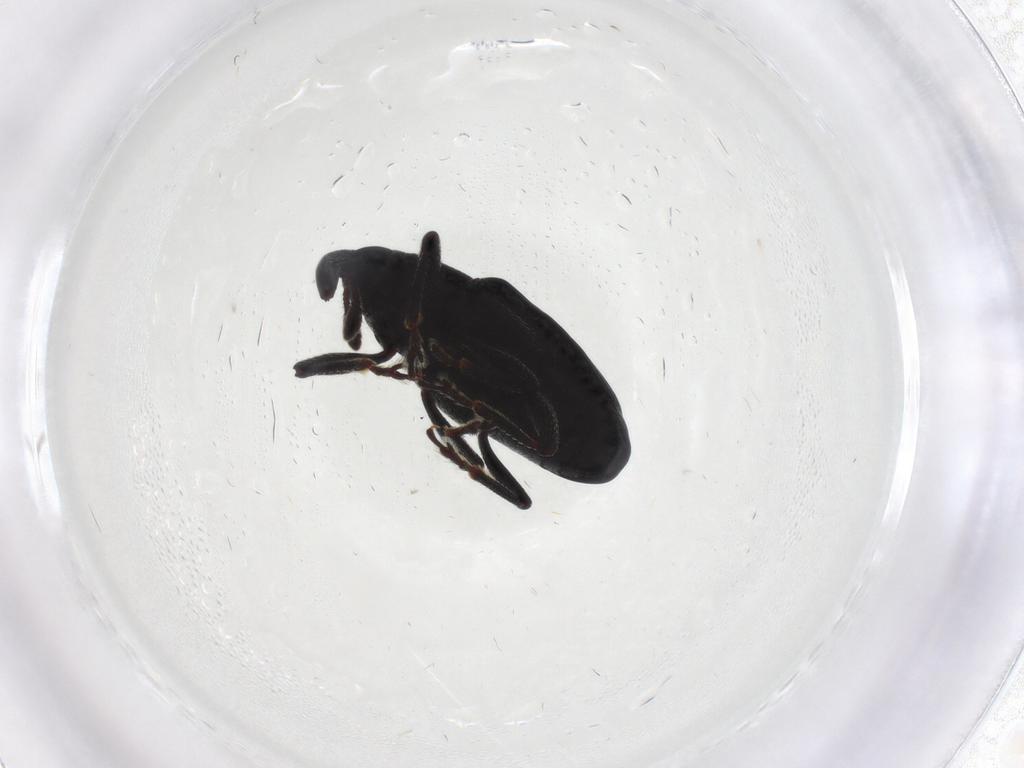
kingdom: Animalia
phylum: Arthropoda
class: Insecta
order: Coleoptera
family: Curculionidae
